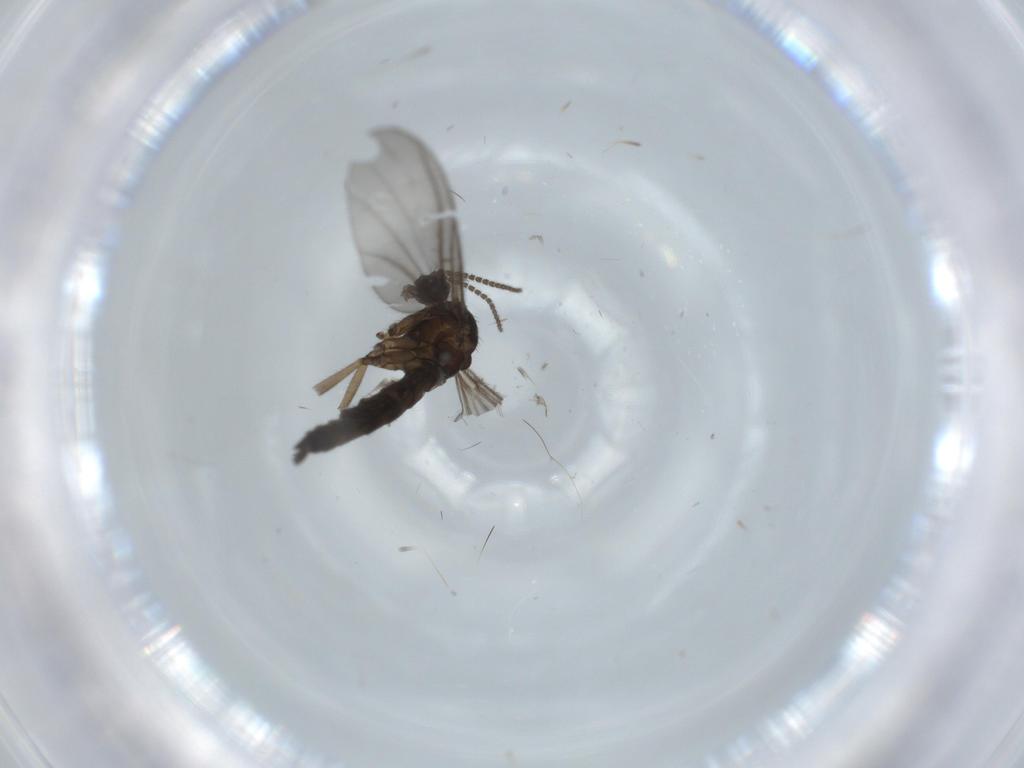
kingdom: Animalia
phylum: Arthropoda
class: Insecta
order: Diptera
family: Sciaridae
